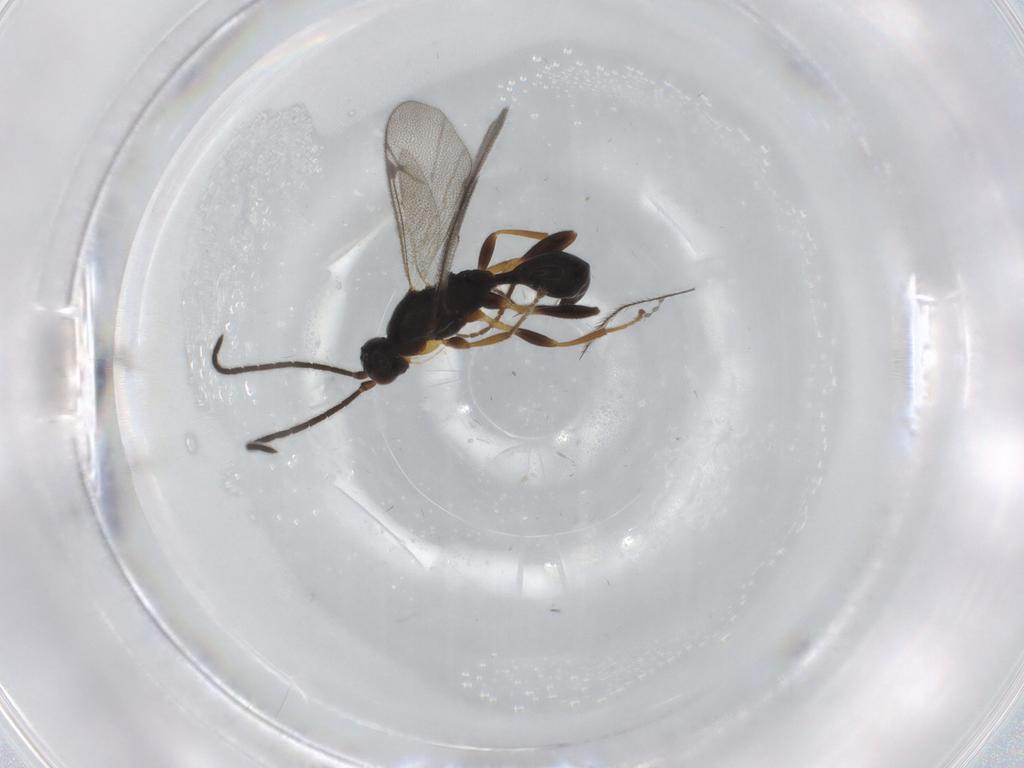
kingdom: Animalia
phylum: Arthropoda
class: Insecta
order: Hymenoptera
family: Proctotrupidae
